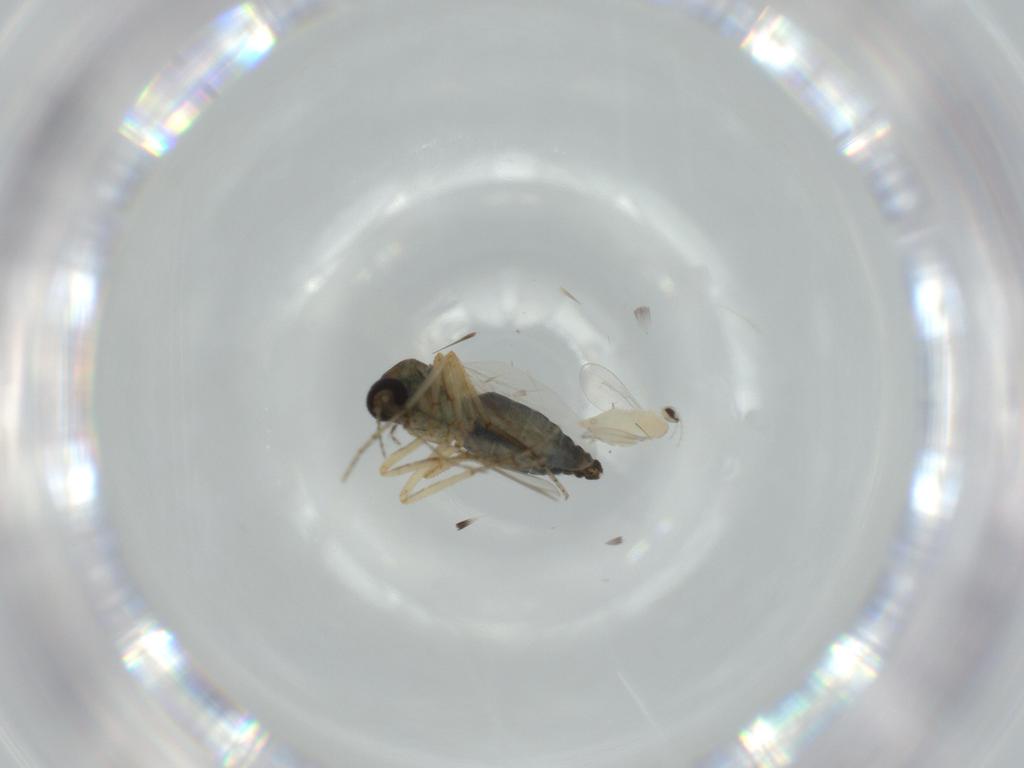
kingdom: Animalia
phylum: Arthropoda
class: Insecta
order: Diptera
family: Ceratopogonidae
